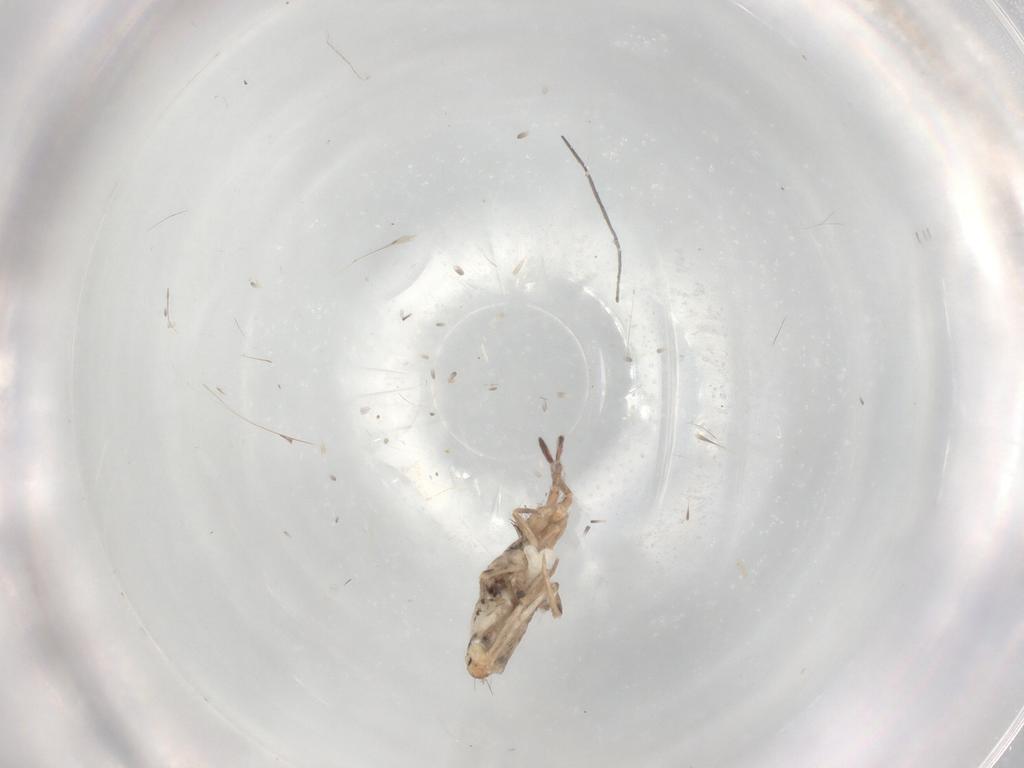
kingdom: Animalia
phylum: Arthropoda
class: Collembola
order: Entomobryomorpha
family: Entomobryidae
